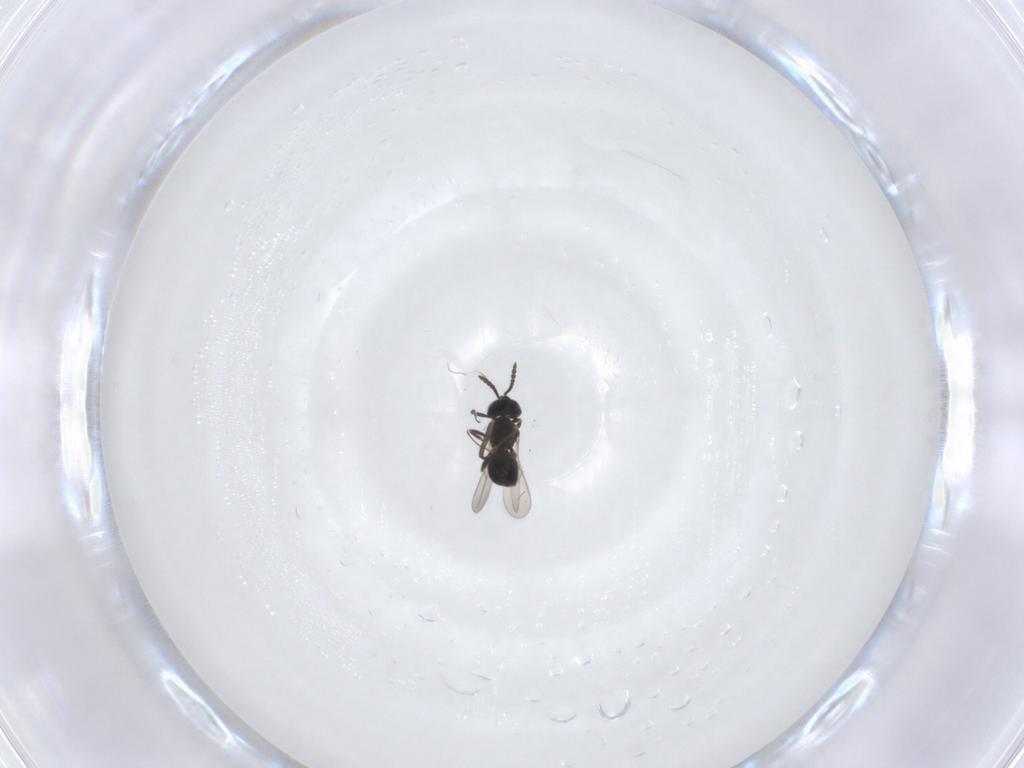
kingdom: Animalia
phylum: Arthropoda
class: Insecta
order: Hymenoptera
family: Scelionidae
